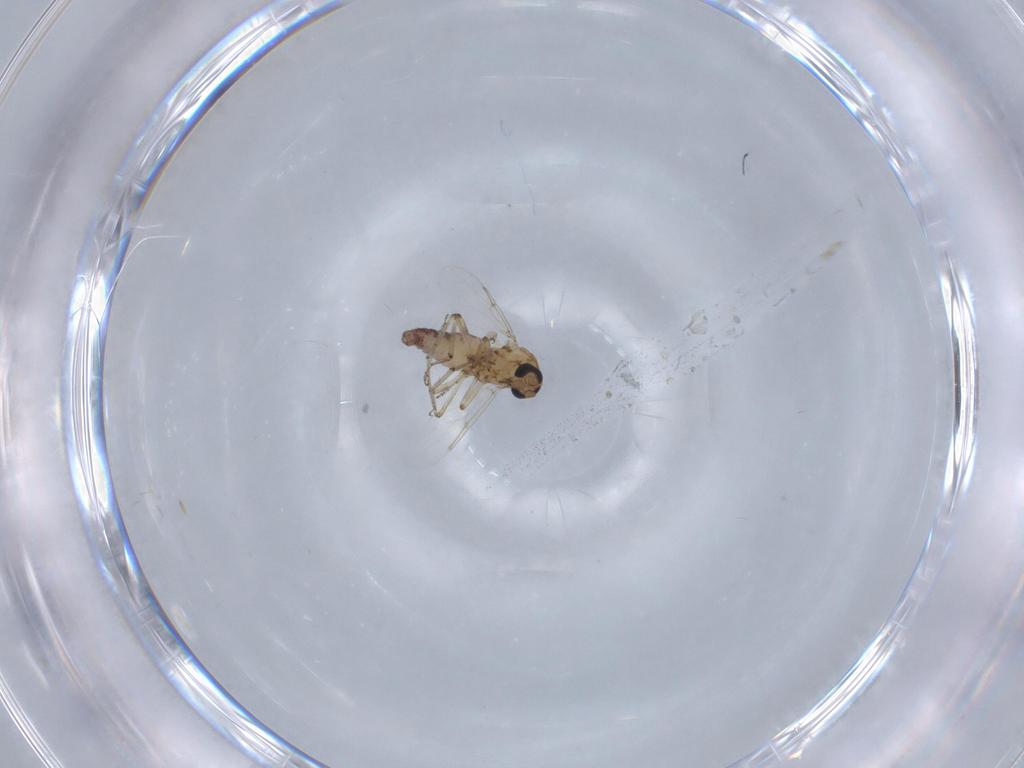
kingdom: Animalia
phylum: Arthropoda
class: Insecta
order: Diptera
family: Ceratopogonidae
